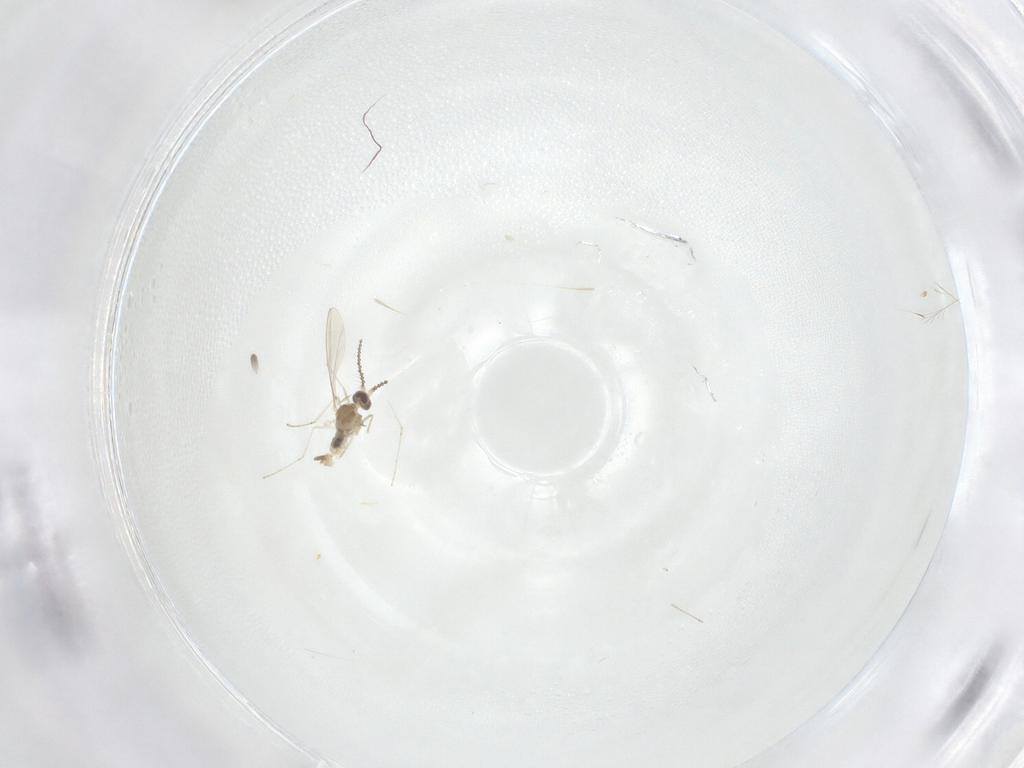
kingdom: Animalia
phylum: Arthropoda
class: Insecta
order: Diptera
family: Cecidomyiidae
